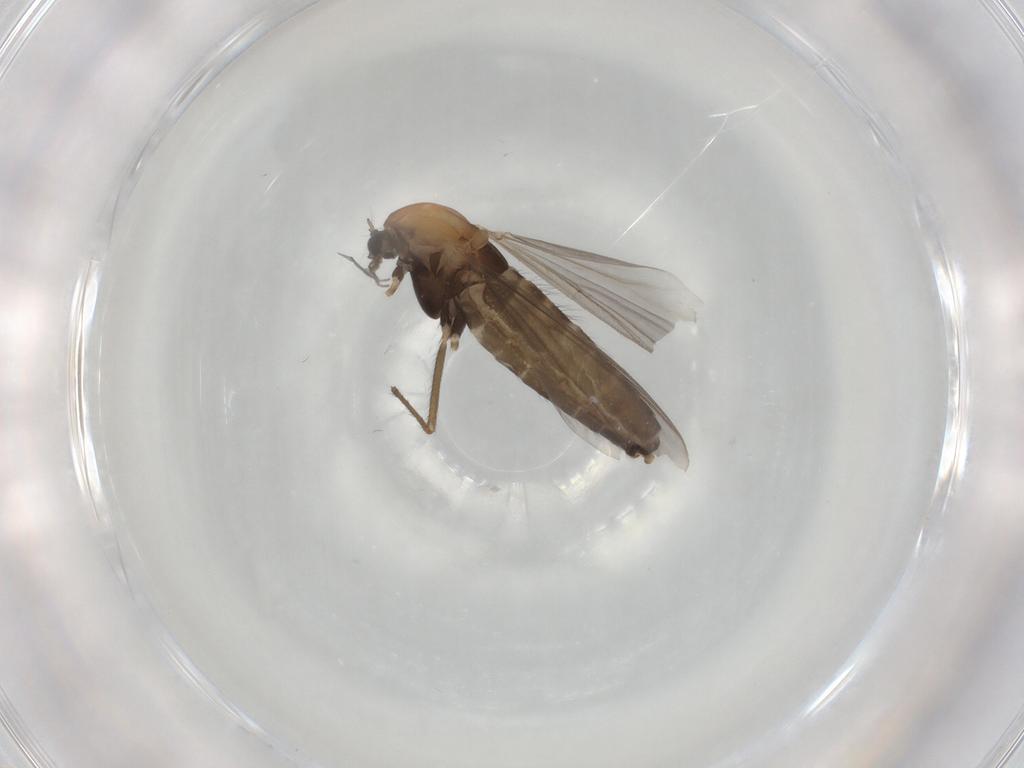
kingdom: Animalia
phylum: Arthropoda
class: Insecta
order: Diptera
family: Chironomidae
